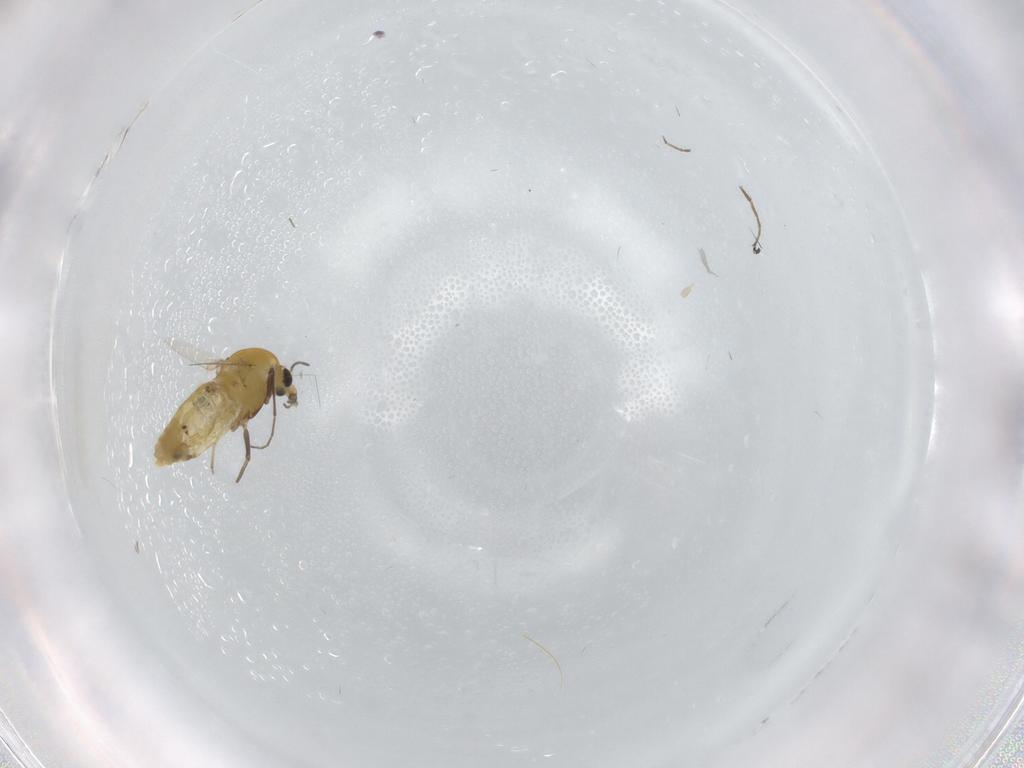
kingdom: Animalia
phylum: Arthropoda
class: Insecta
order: Diptera
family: Chironomidae
